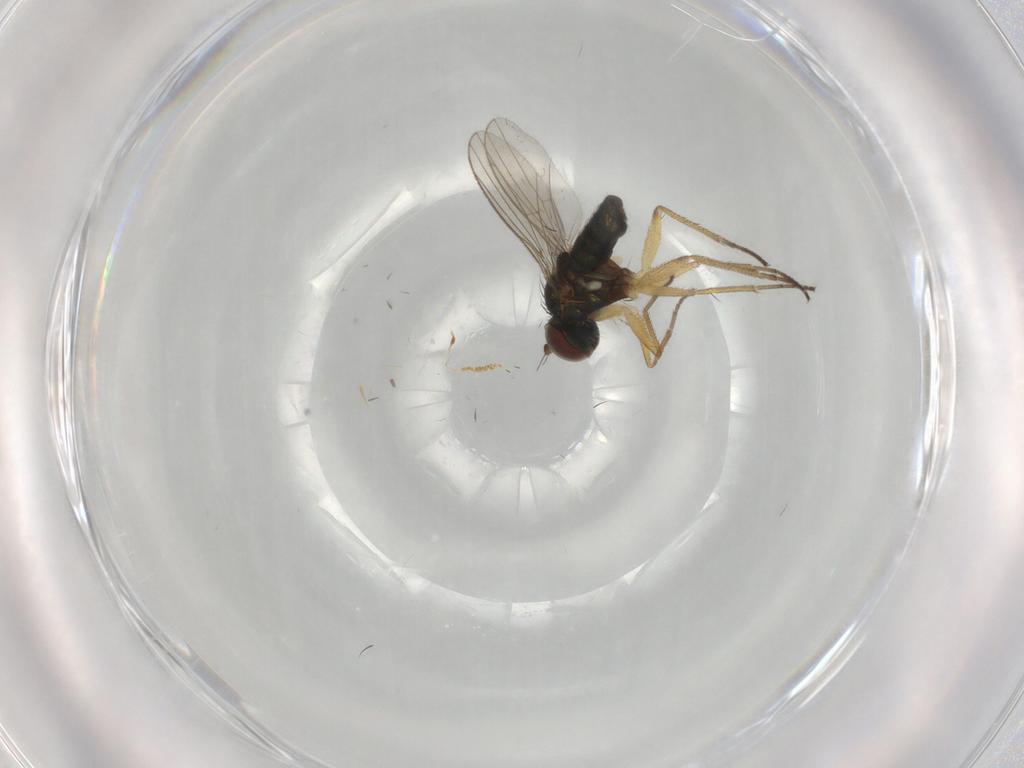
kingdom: Animalia
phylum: Arthropoda
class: Insecta
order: Diptera
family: Dolichopodidae
